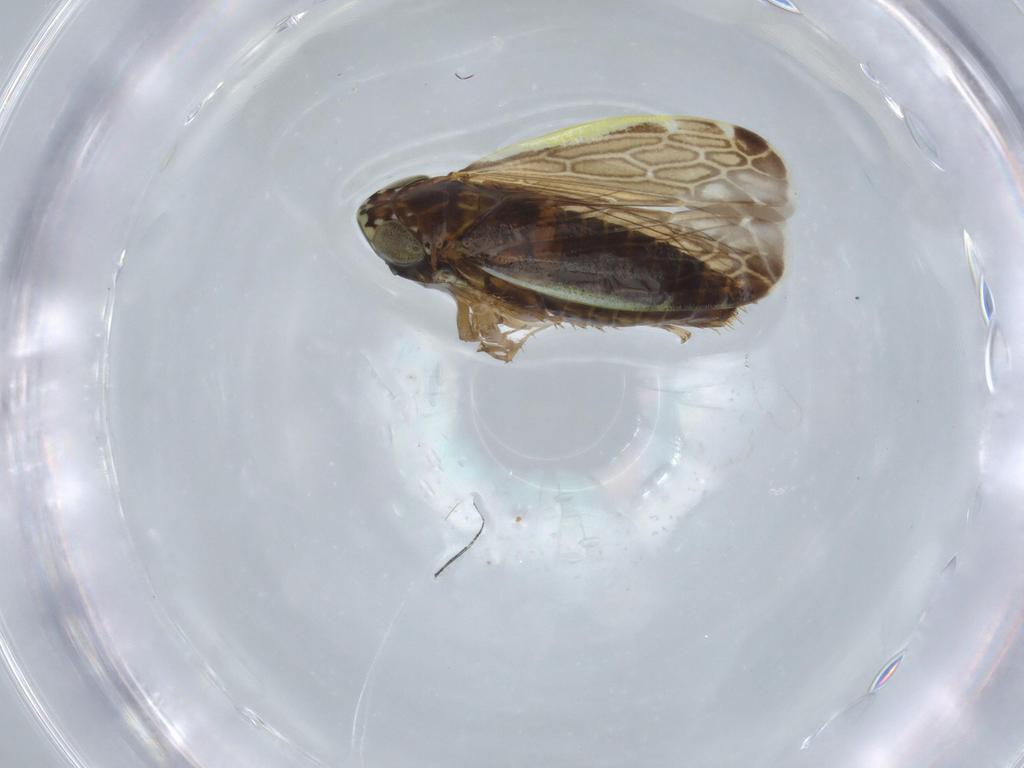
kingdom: Animalia
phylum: Arthropoda
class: Insecta
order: Hemiptera
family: Cicadellidae
